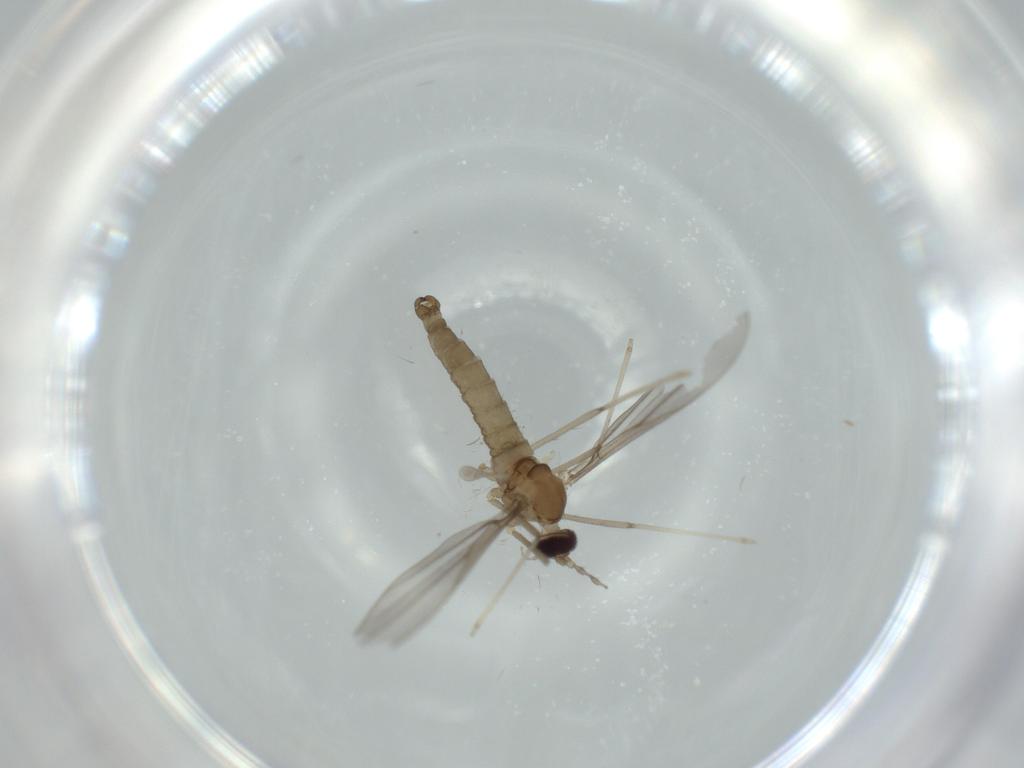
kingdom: Animalia
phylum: Arthropoda
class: Insecta
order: Diptera
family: Cecidomyiidae
